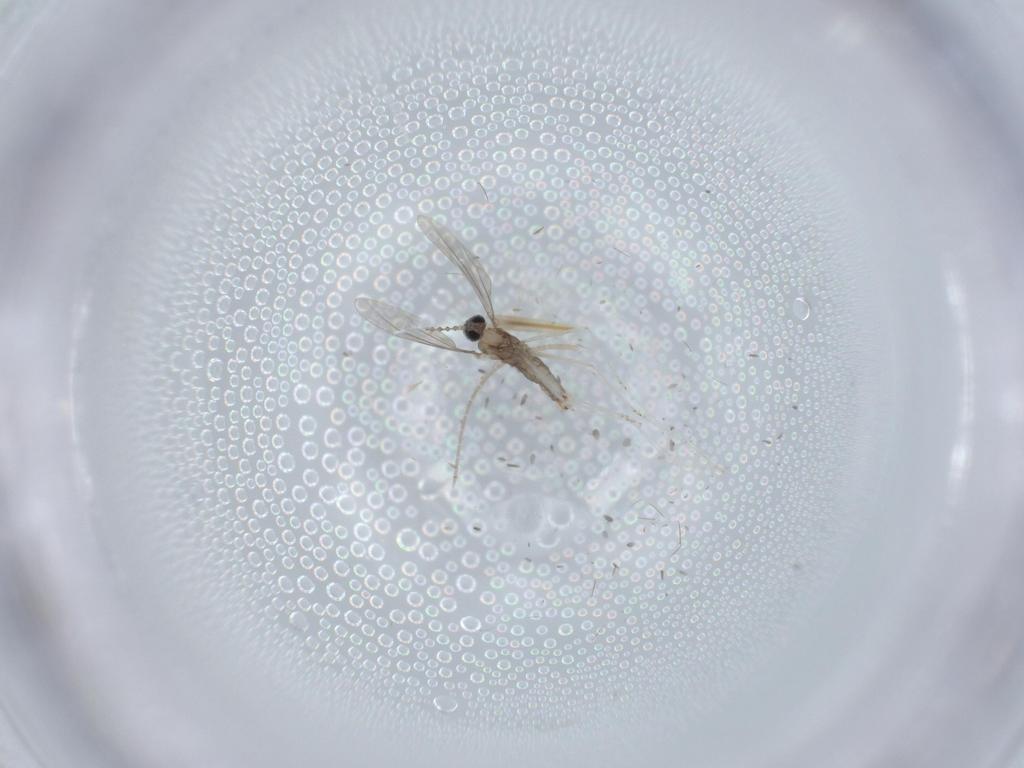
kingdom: Animalia
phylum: Arthropoda
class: Insecta
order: Diptera
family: Cecidomyiidae
